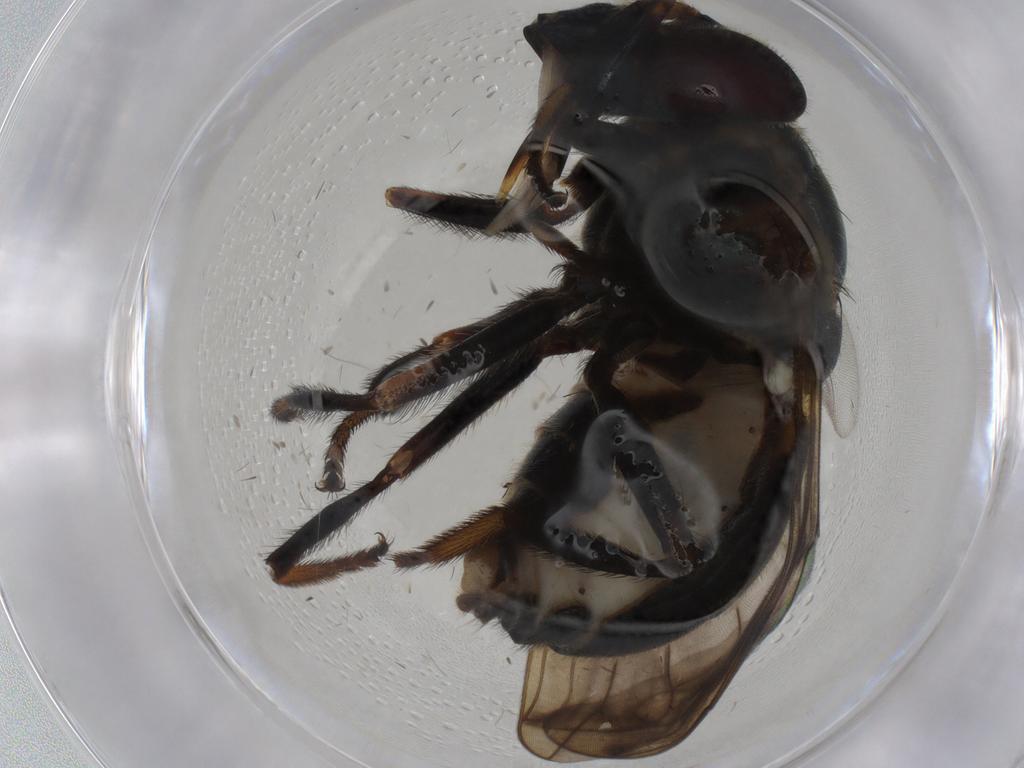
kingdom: Animalia
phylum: Arthropoda
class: Insecta
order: Diptera
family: Syrphidae
